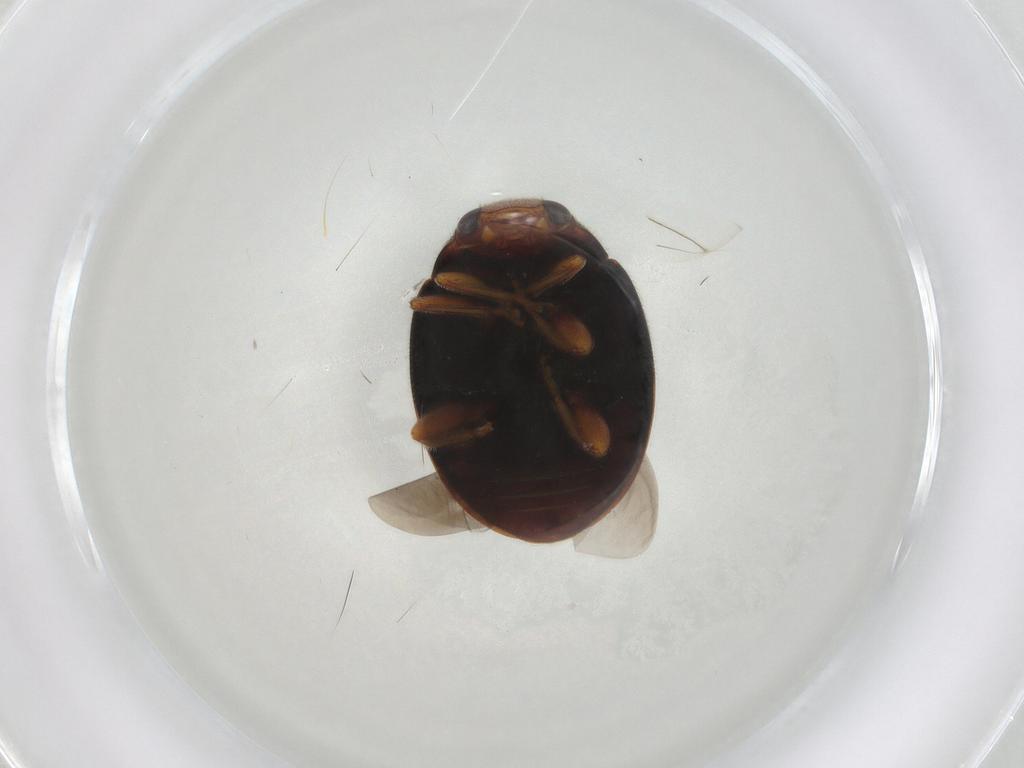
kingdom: Animalia
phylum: Arthropoda
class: Insecta
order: Coleoptera
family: Coccinellidae
